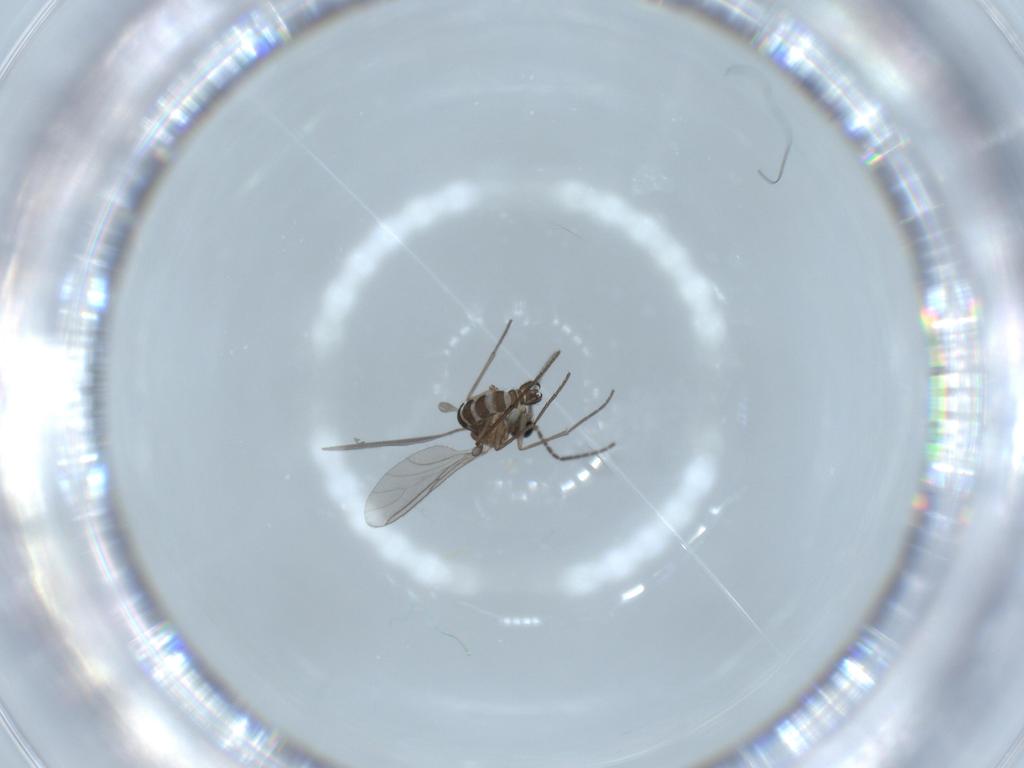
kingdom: Animalia
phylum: Arthropoda
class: Insecta
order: Diptera
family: Sciaridae
